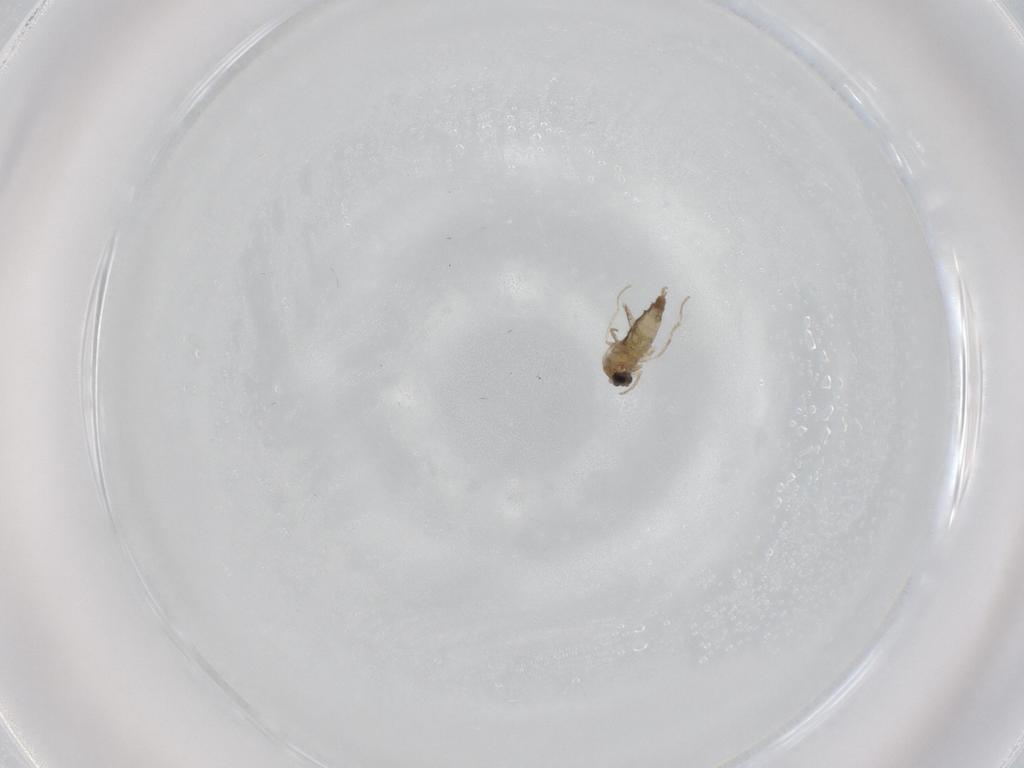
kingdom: Animalia
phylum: Arthropoda
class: Insecta
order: Diptera
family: Cecidomyiidae
